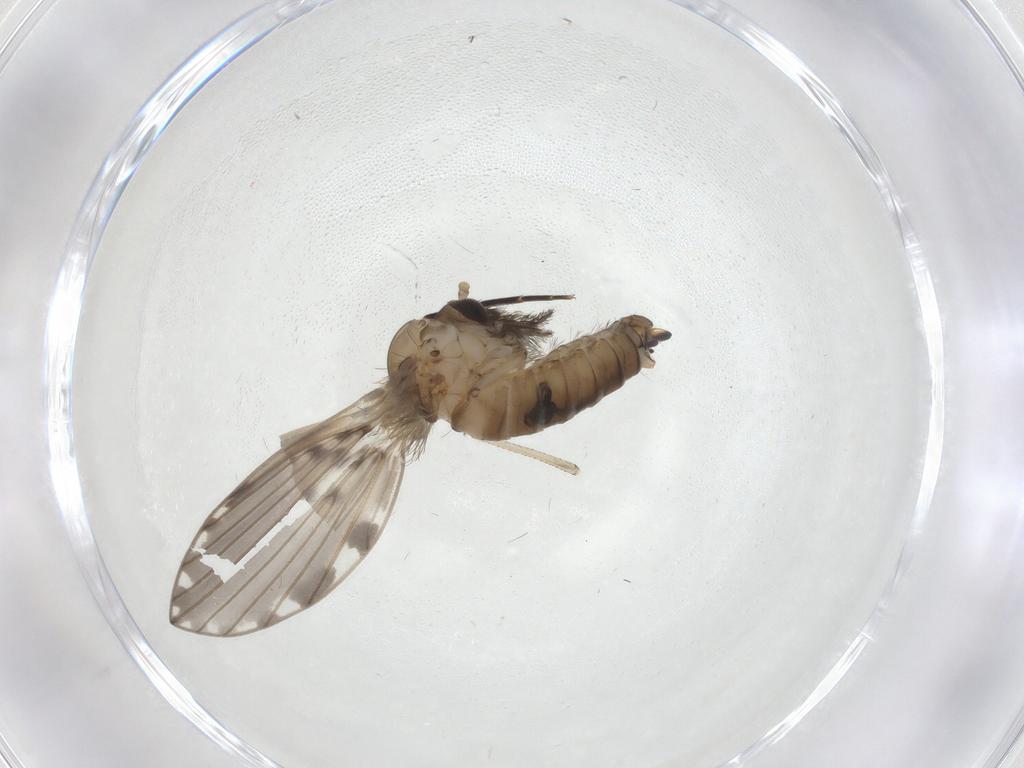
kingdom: Animalia
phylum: Arthropoda
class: Insecta
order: Diptera
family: Psychodidae
